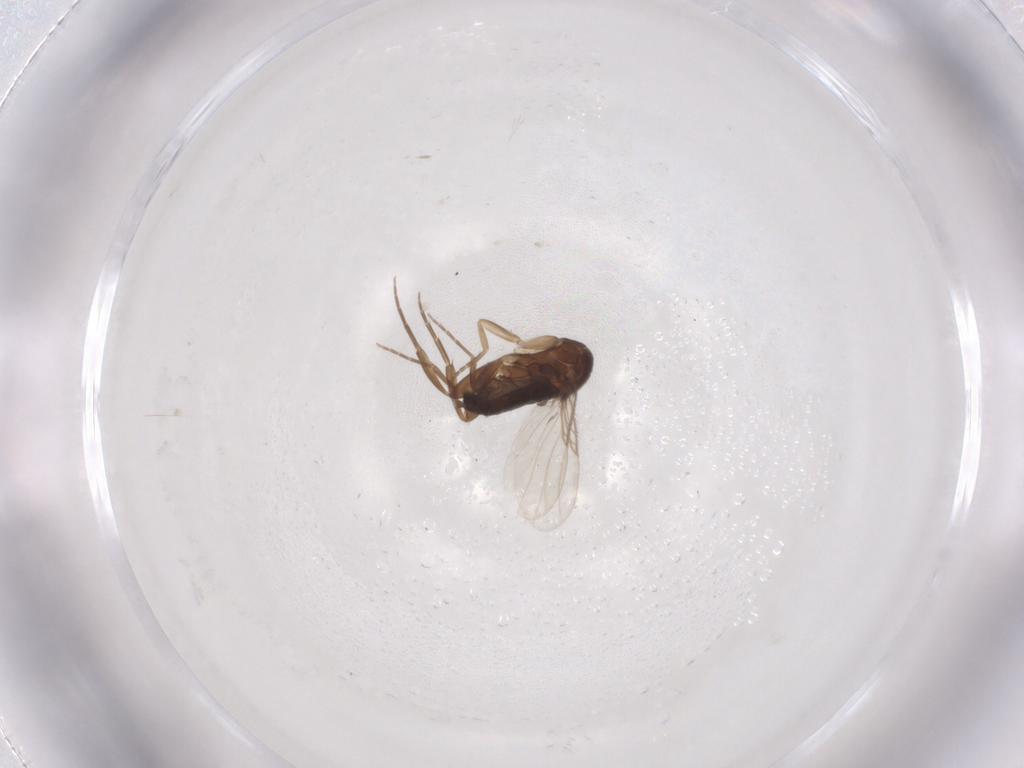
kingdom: Animalia
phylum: Arthropoda
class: Insecta
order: Diptera
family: Phoridae
